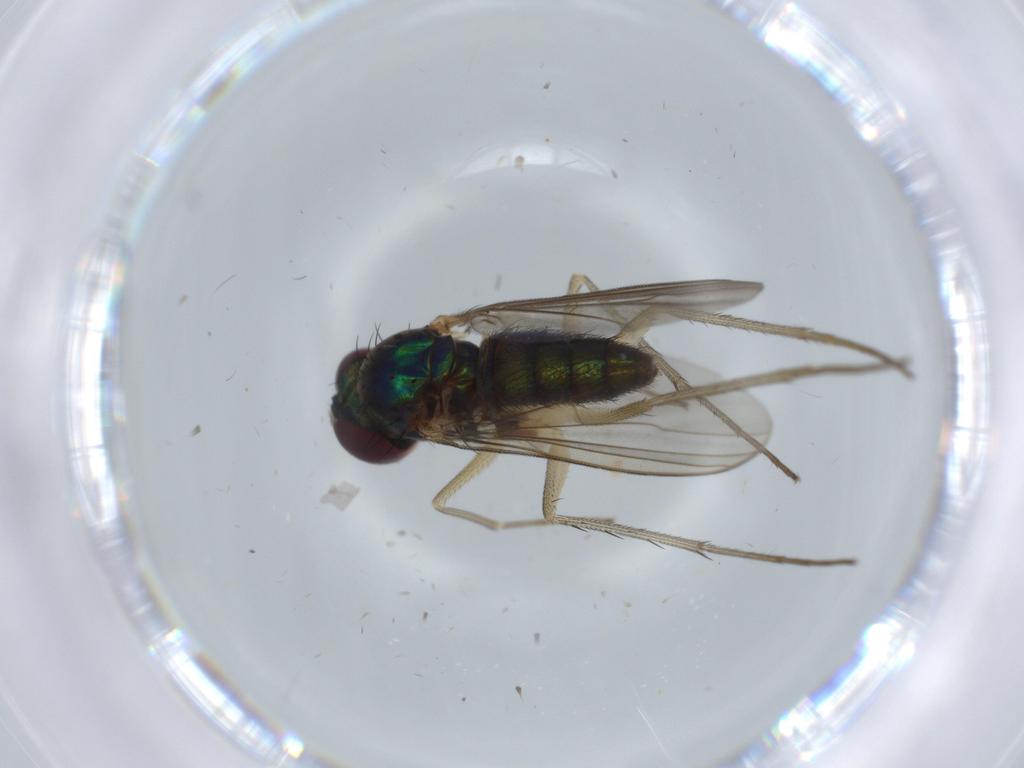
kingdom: Animalia
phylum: Arthropoda
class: Insecta
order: Diptera
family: Dolichopodidae
